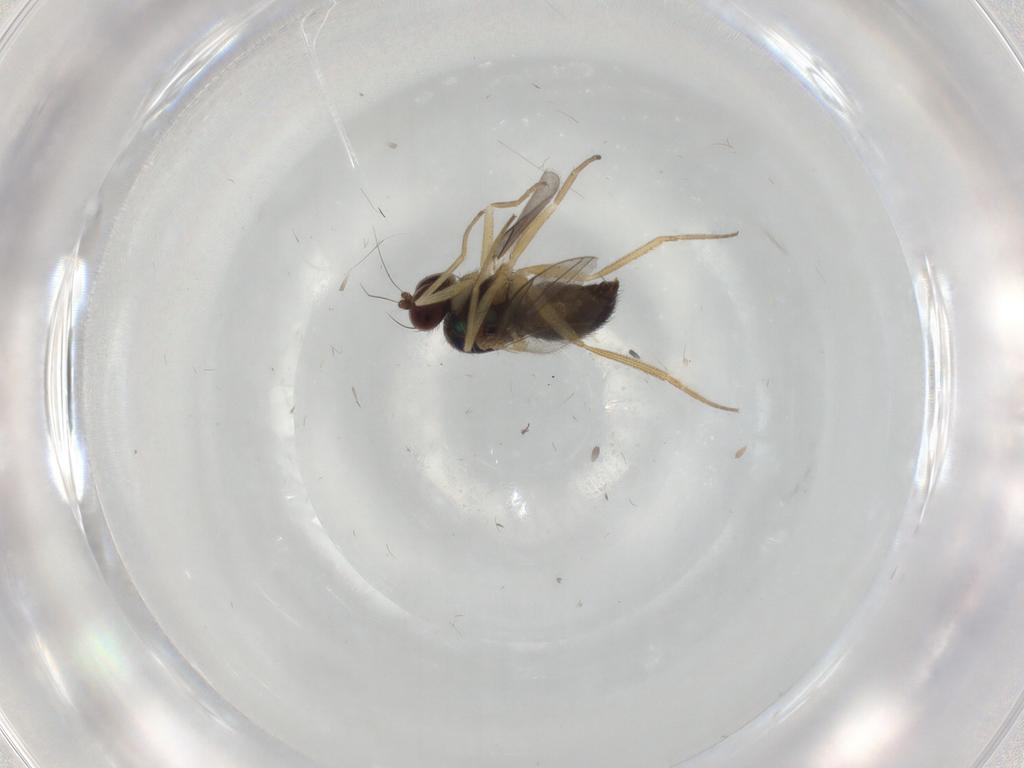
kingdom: Animalia
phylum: Arthropoda
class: Insecta
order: Diptera
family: Dolichopodidae
